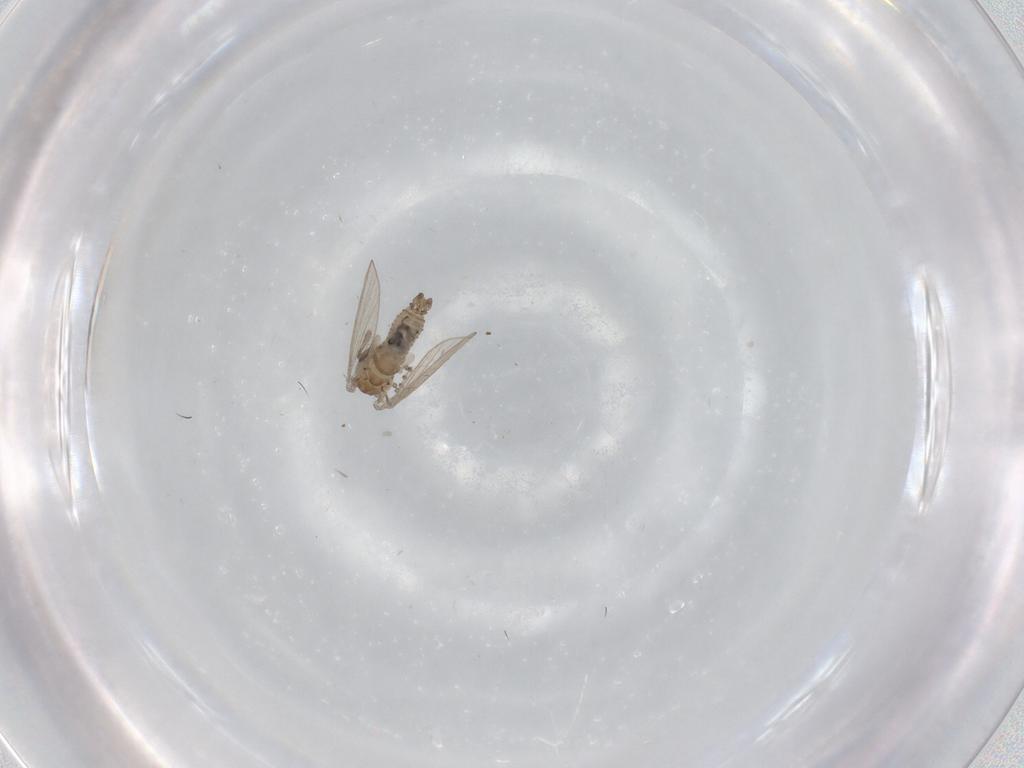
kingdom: Animalia
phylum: Arthropoda
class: Insecta
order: Diptera
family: Psychodidae
